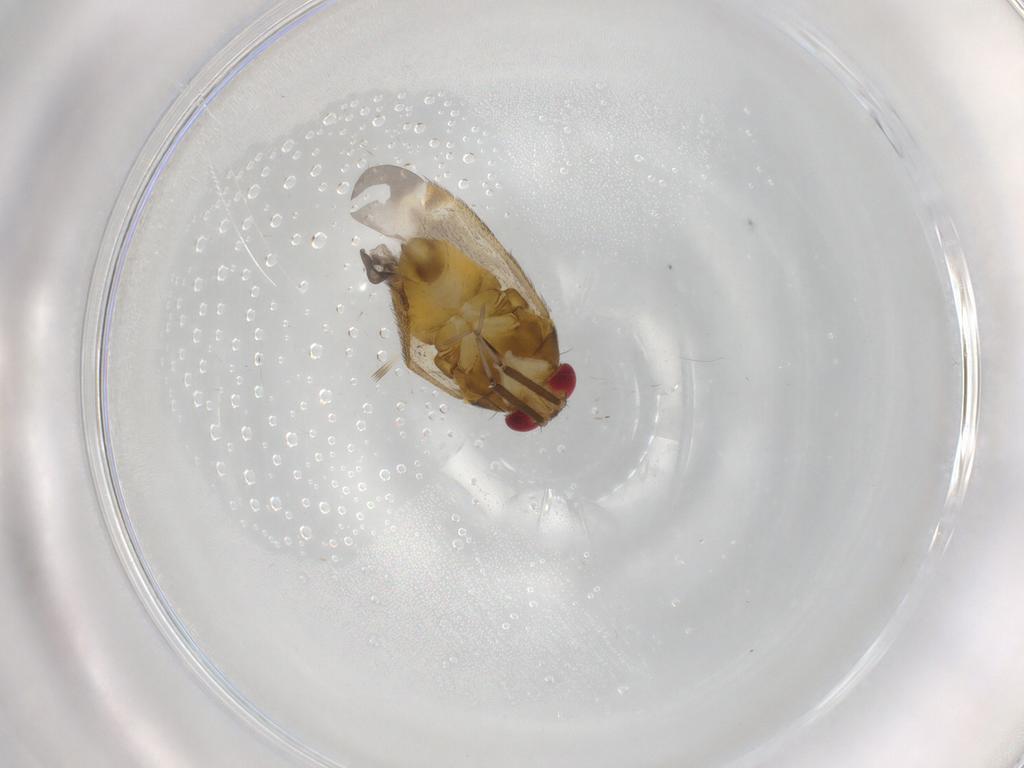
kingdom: Animalia
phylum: Arthropoda
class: Insecta
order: Hemiptera
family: Miridae
